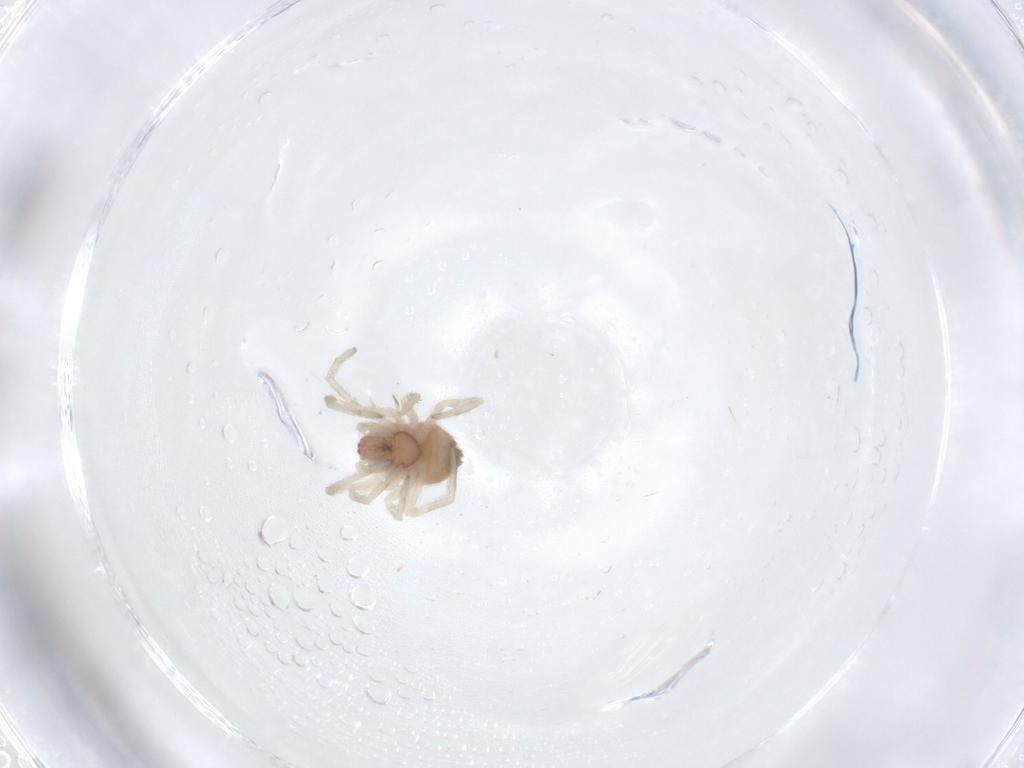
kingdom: Animalia
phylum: Arthropoda
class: Arachnida
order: Araneae
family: Dictynidae
